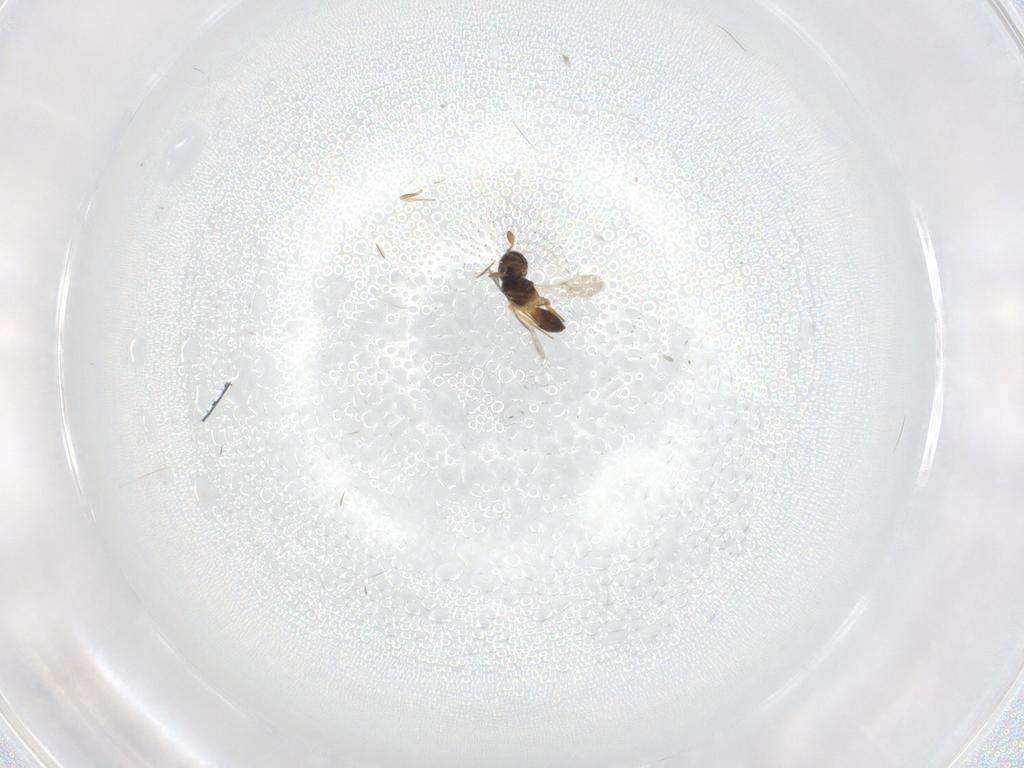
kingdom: Animalia
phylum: Arthropoda
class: Insecta
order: Hymenoptera
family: Scelionidae
